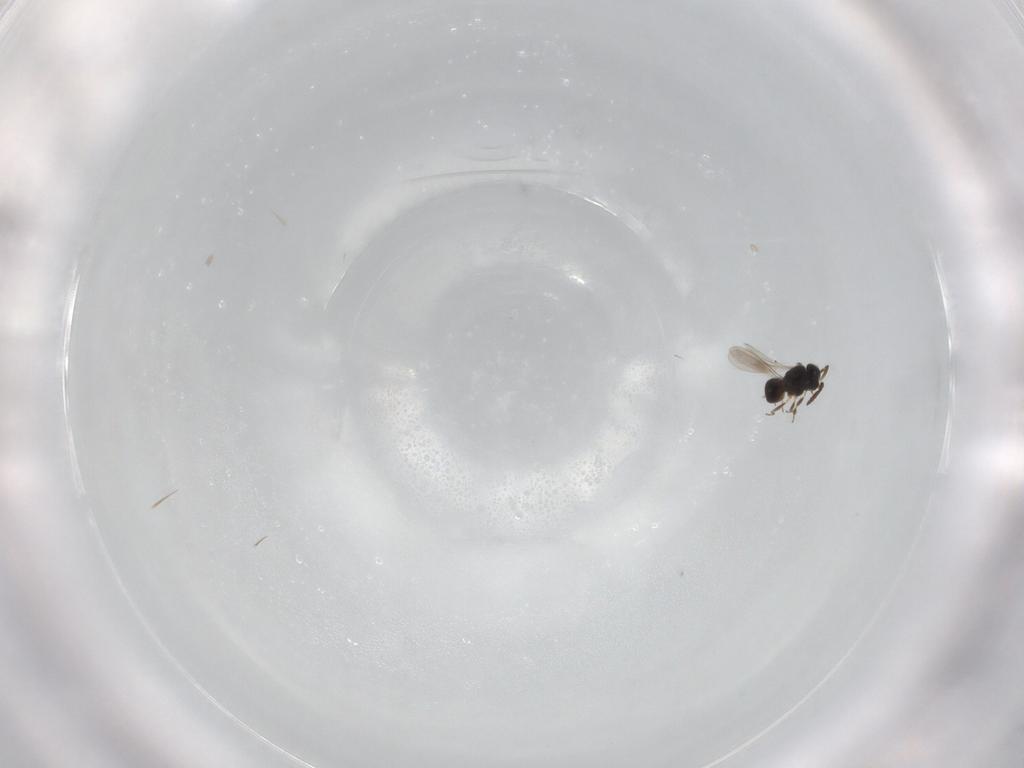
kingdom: Animalia
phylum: Arthropoda
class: Insecta
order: Hymenoptera
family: Scelionidae
